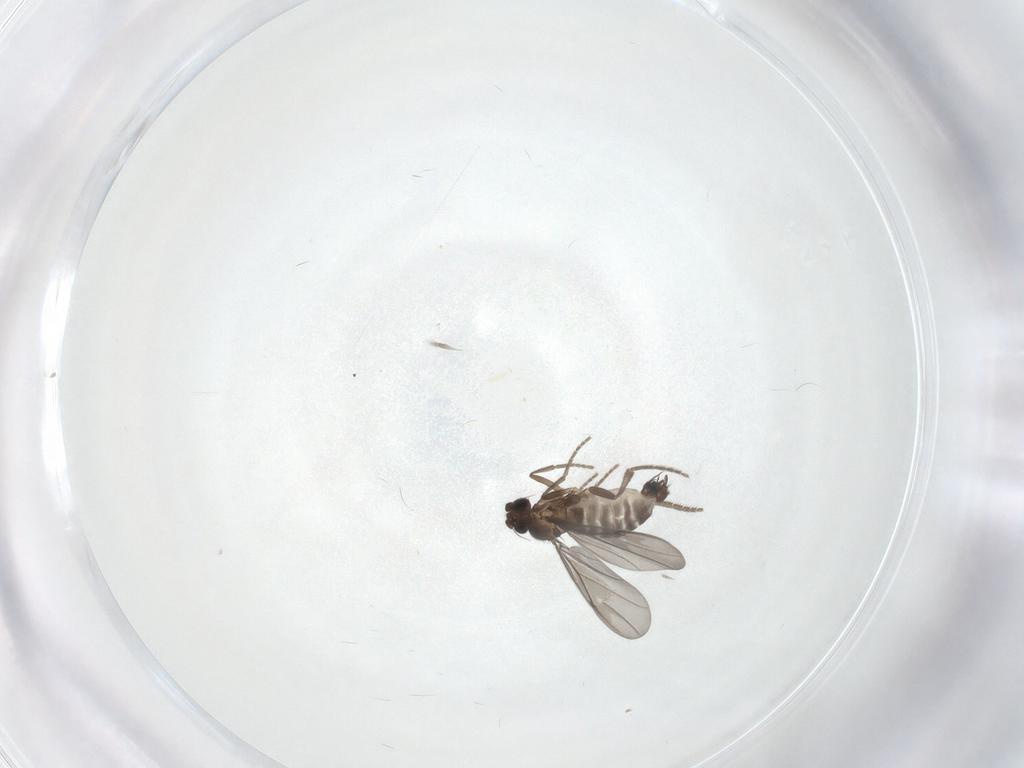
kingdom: Animalia
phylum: Arthropoda
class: Insecta
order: Diptera
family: Phoridae
